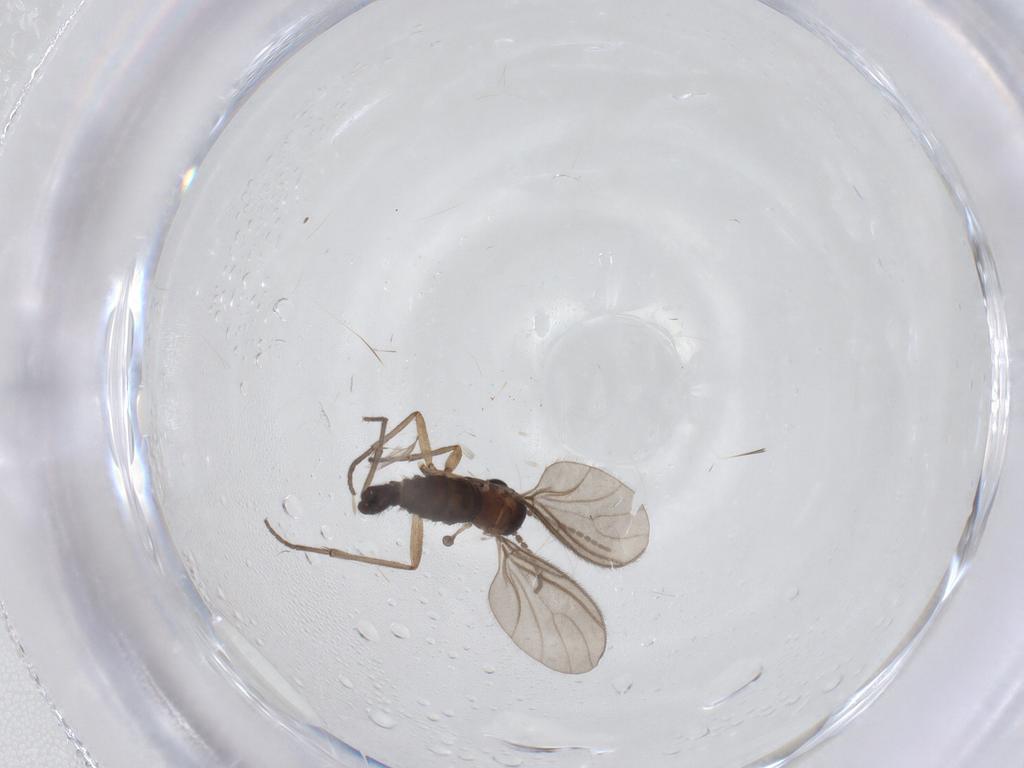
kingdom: Animalia
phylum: Arthropoda
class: Insecta
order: Diptera
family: Sciaridae
